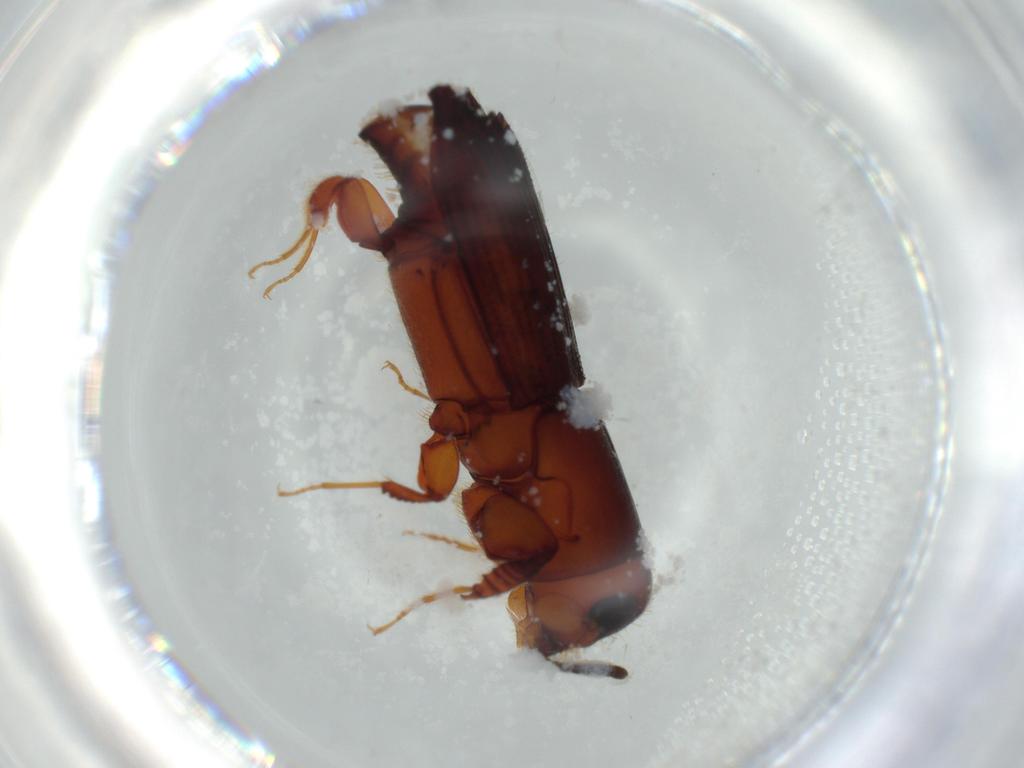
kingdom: Animalia
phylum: Arthropoda
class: Insecta
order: Coleoptera
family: Curculionidae
